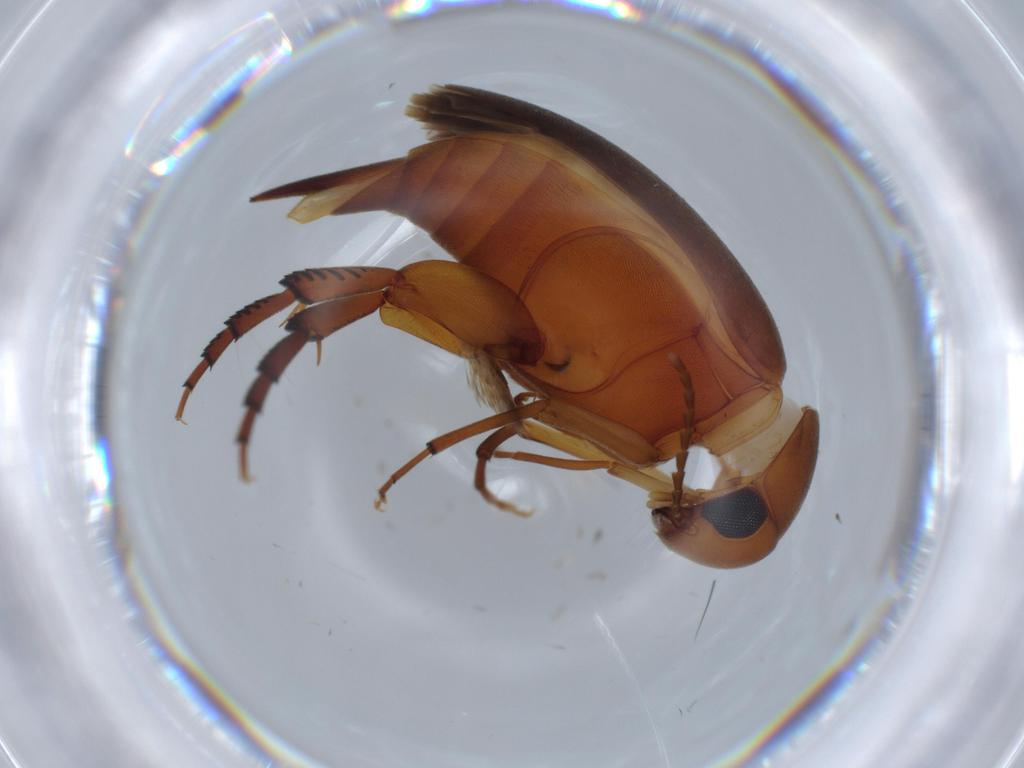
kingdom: Animalia
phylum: Arthropoda
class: Insecta
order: Coleoptera
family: Mordellidae
